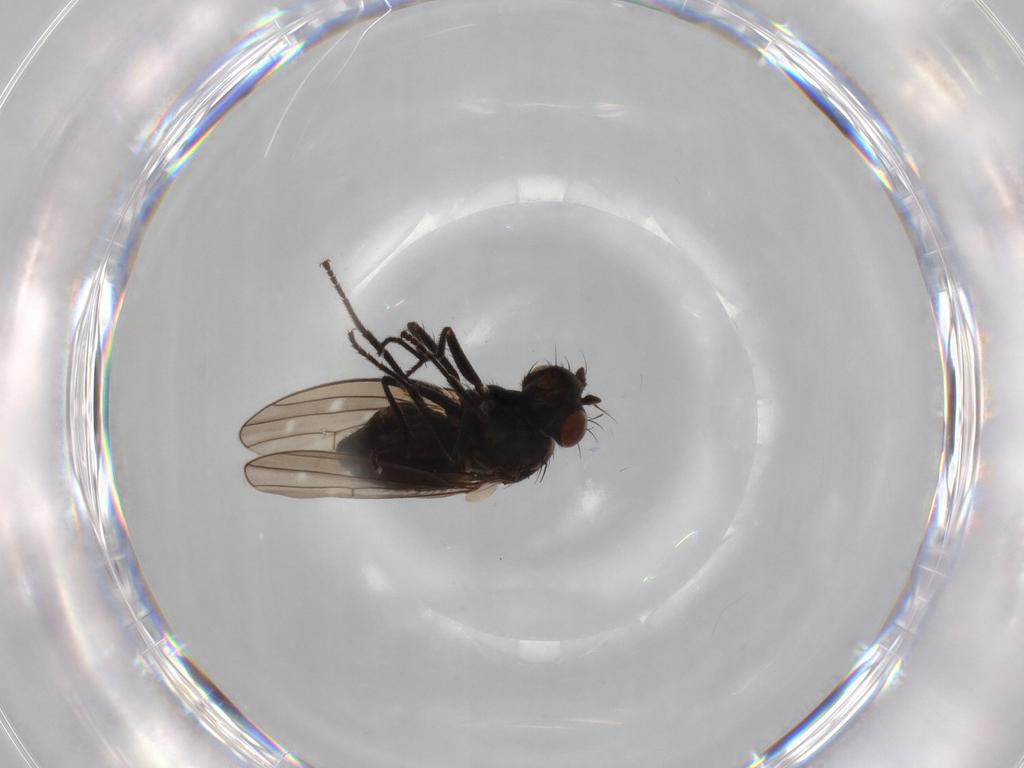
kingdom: Animalia
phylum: Arthropoda
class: Insecta
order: Diptera
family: Ephydridae
